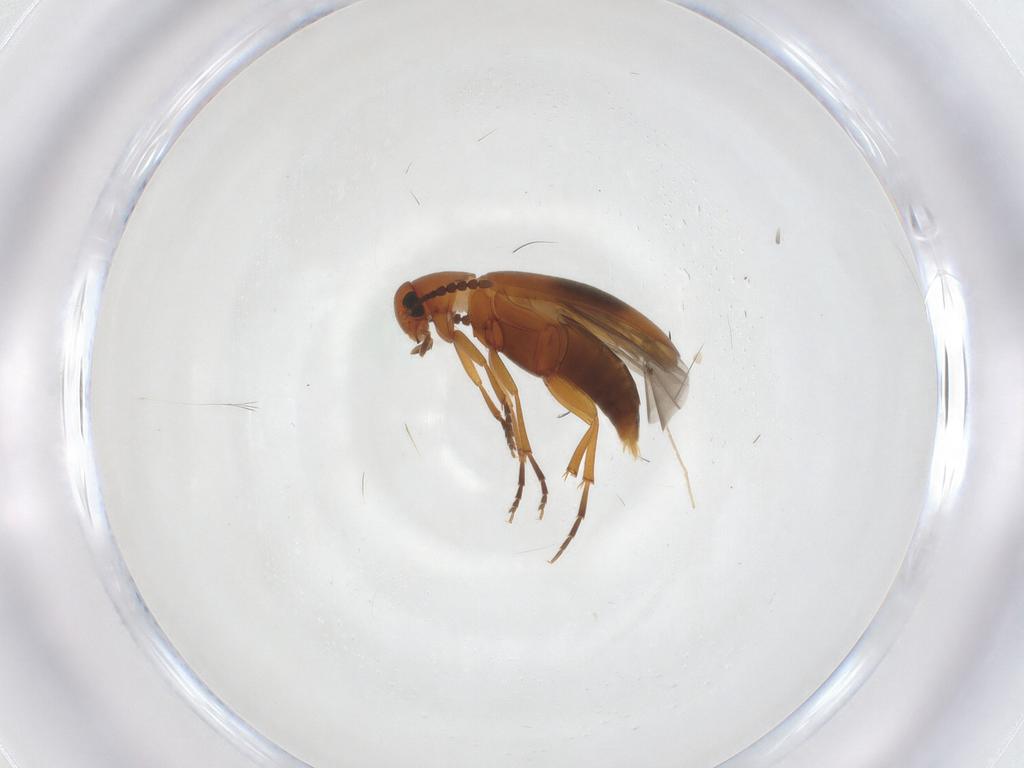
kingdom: Animalia
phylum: Arthropoda
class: Insecta
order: Coleoptera
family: Scraptiidae
